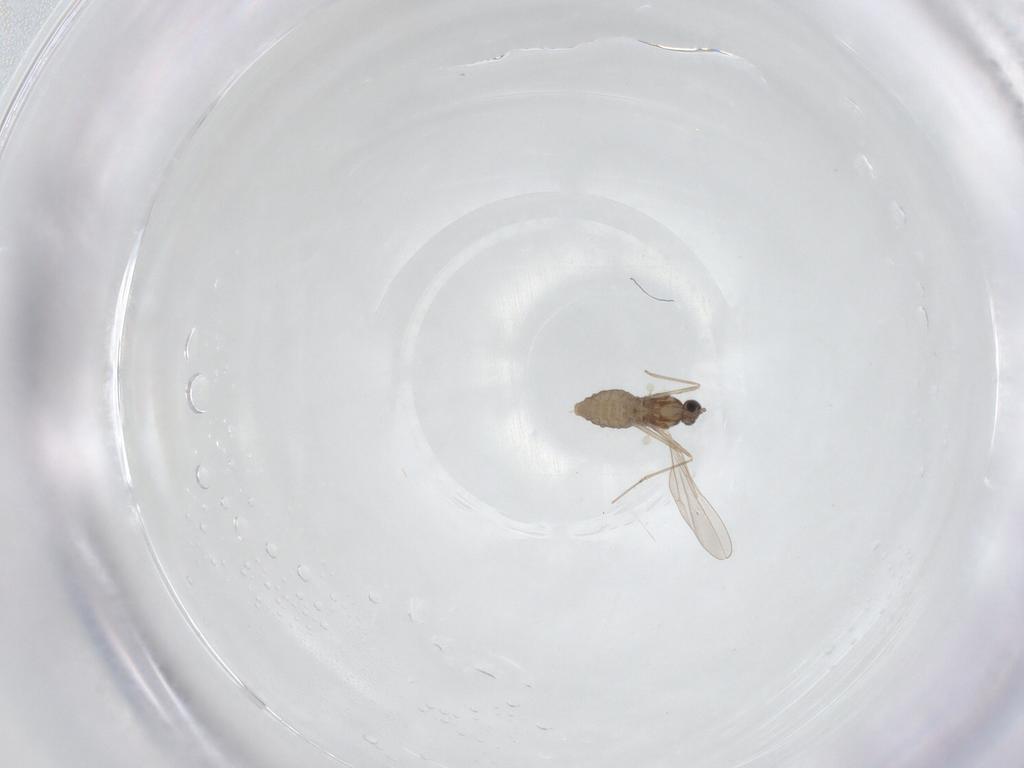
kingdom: Animalia
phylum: Arthropoda
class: Insecta
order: Diptera
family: Cecidomyiidae
